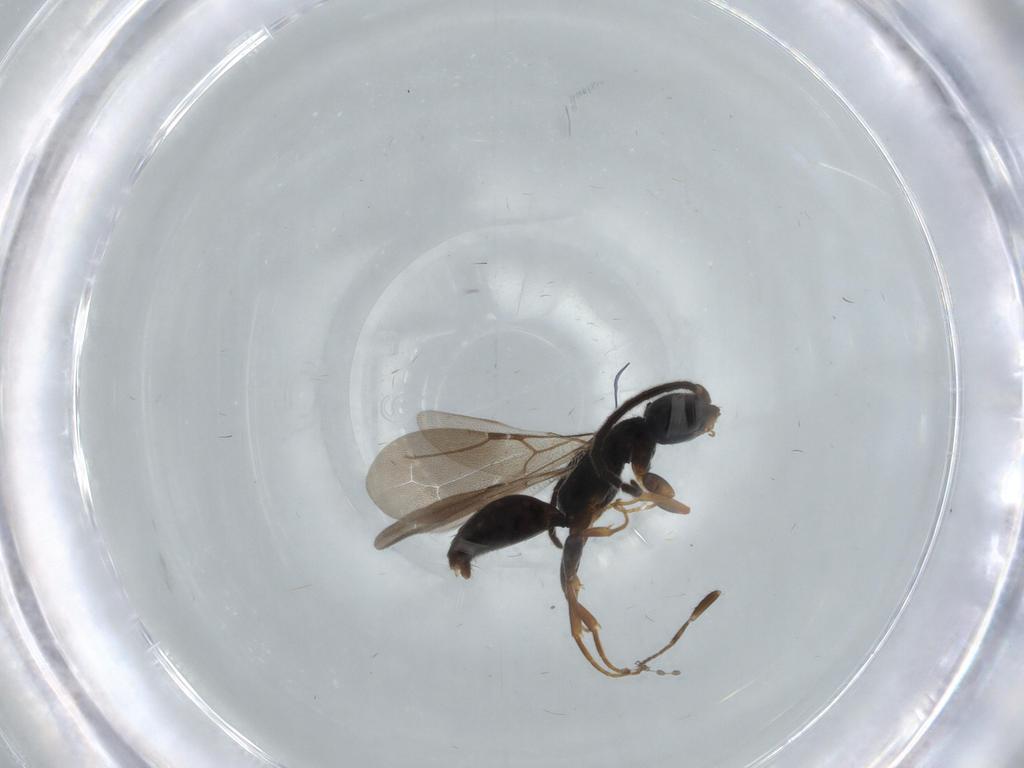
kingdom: Animalia
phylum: Arthropoda
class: Insecta
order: Hymenoptera
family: Bethylidae
